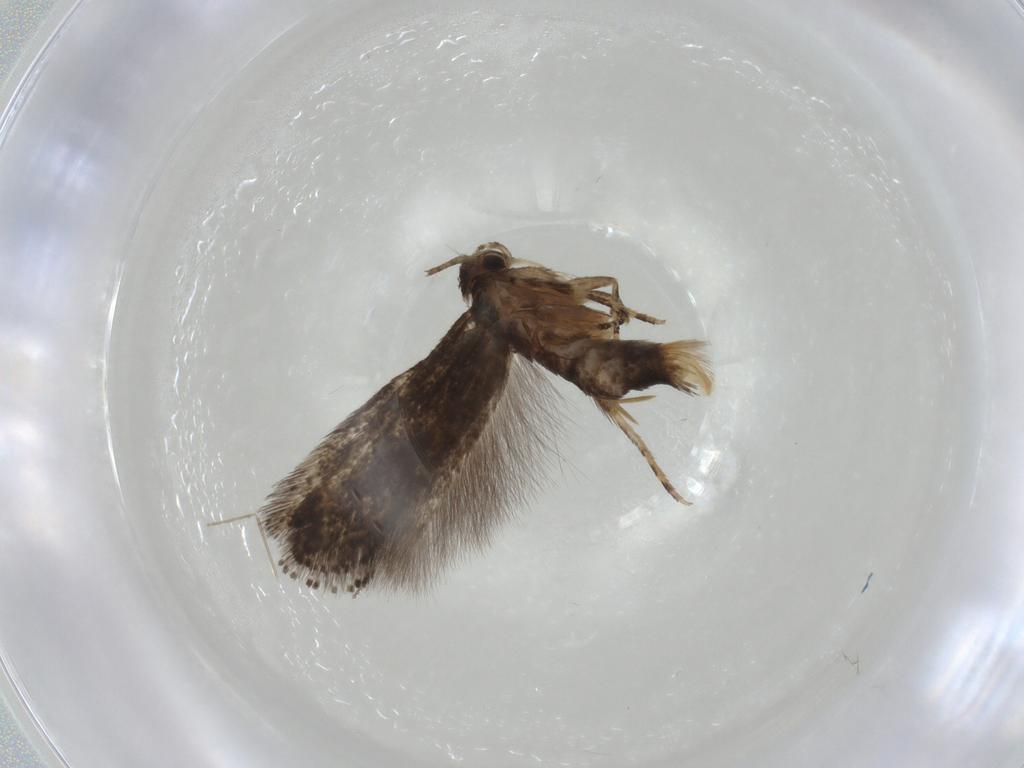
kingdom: Animalia
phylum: Arthropoda
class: Insecta
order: Lepidoptera
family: Elachistidae
